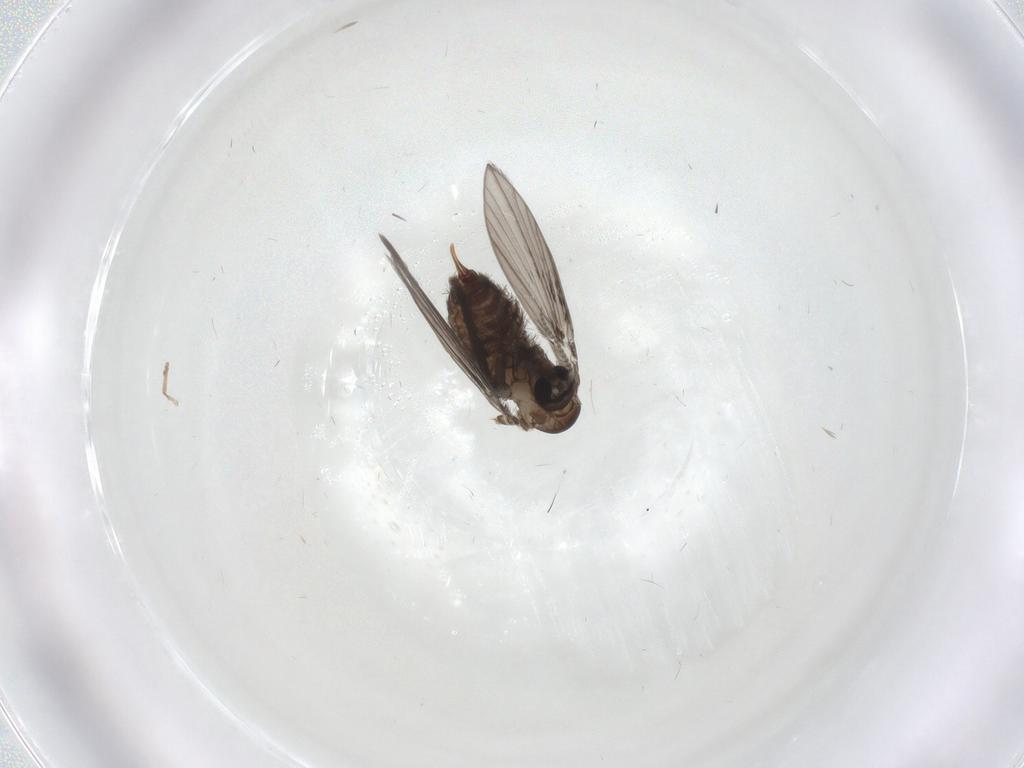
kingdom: Animalia
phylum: Arthropoda
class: Insecta
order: Diptera
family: Psychodidae
